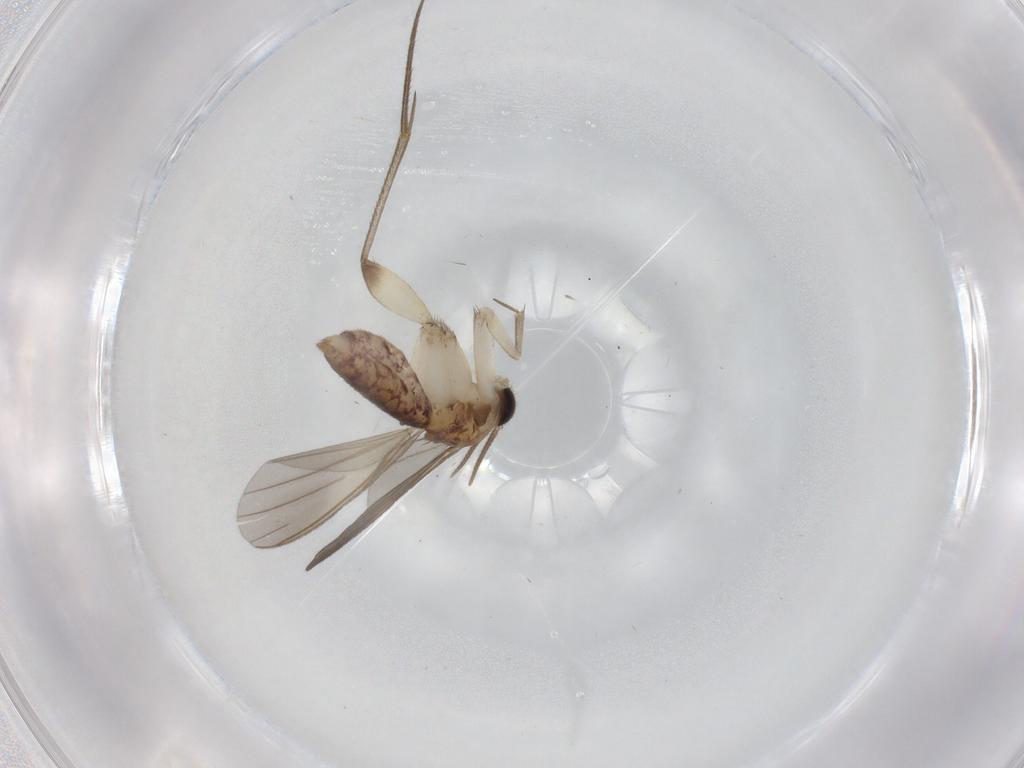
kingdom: Animalia
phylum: Arthropoda
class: Insecta
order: Diptera
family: Mycetophilidae
